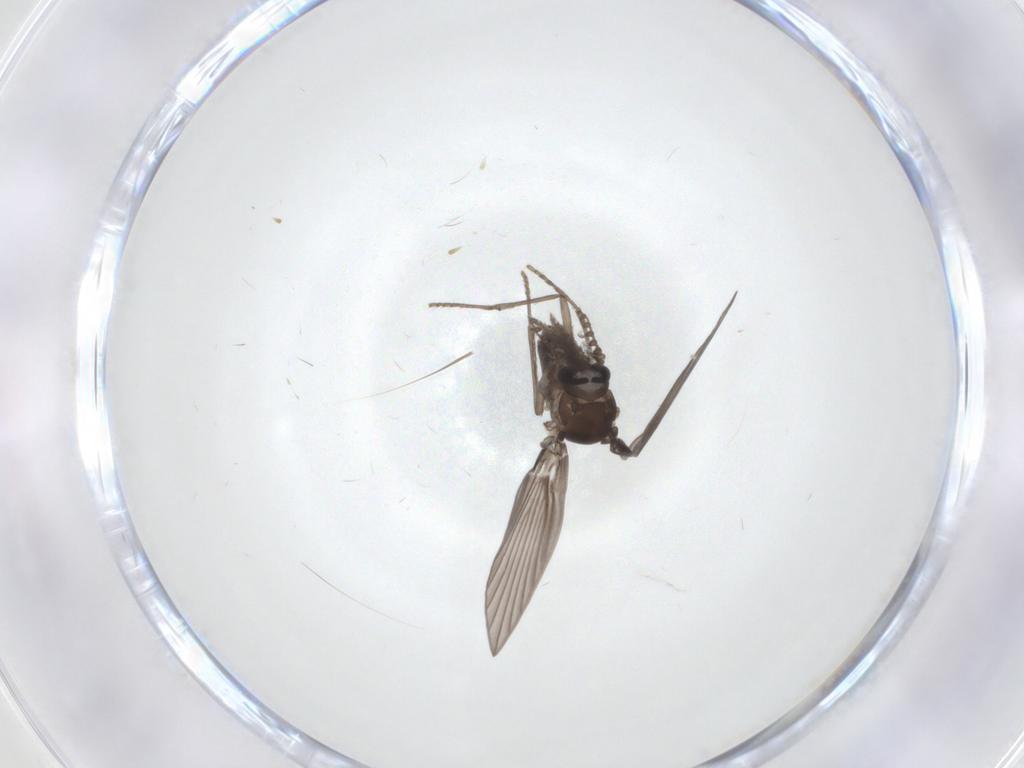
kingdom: Animalia
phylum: Arthropoda
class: Insecta
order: Diptera
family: Psychodidae
